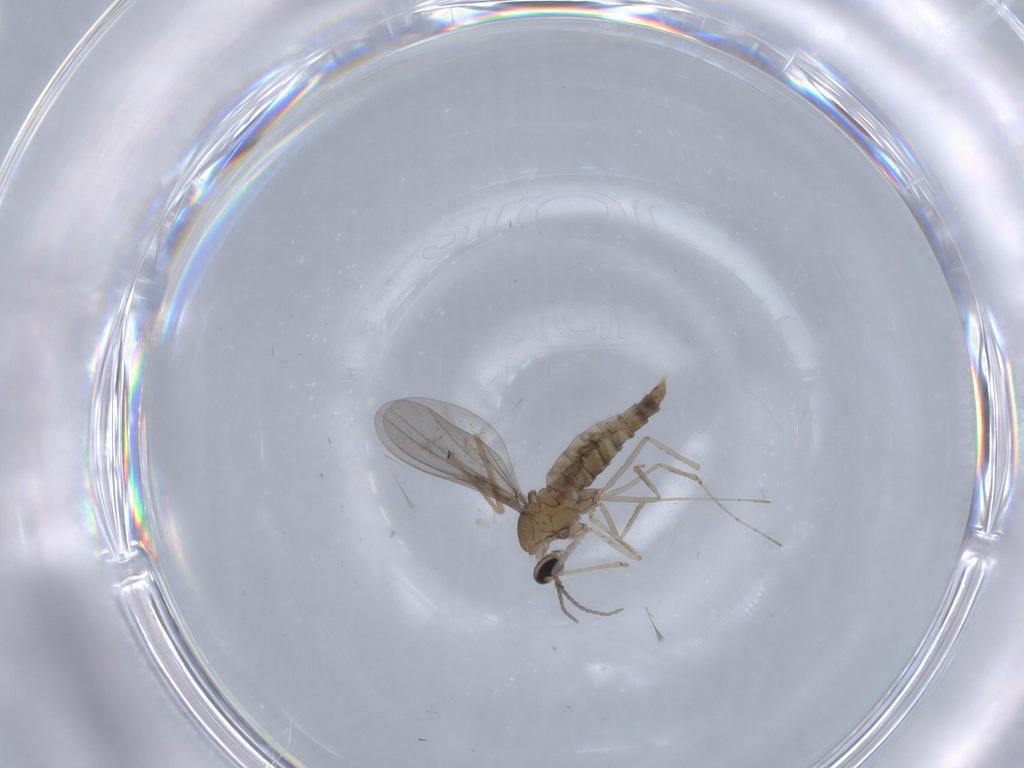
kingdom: Animalia
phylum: Arthropoda
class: Insecta
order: Diptera
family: Cecidomyiidae
